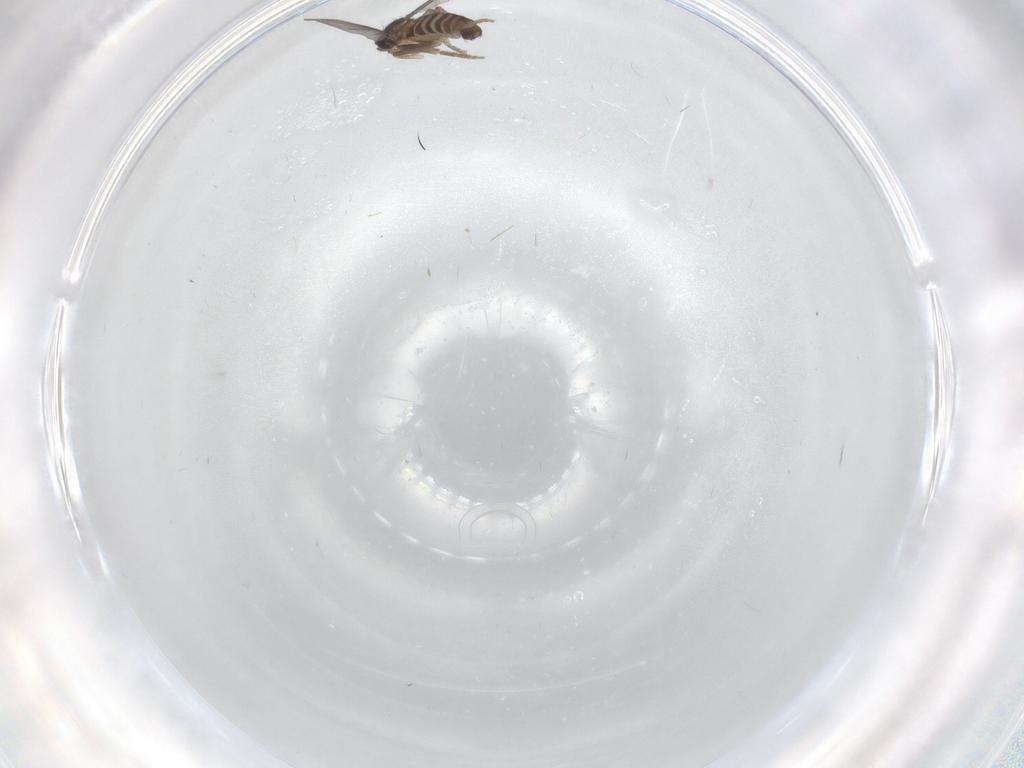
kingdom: Animalia
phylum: Arthropoda
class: Insecta
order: Diptera
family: Cecidomyiidae
